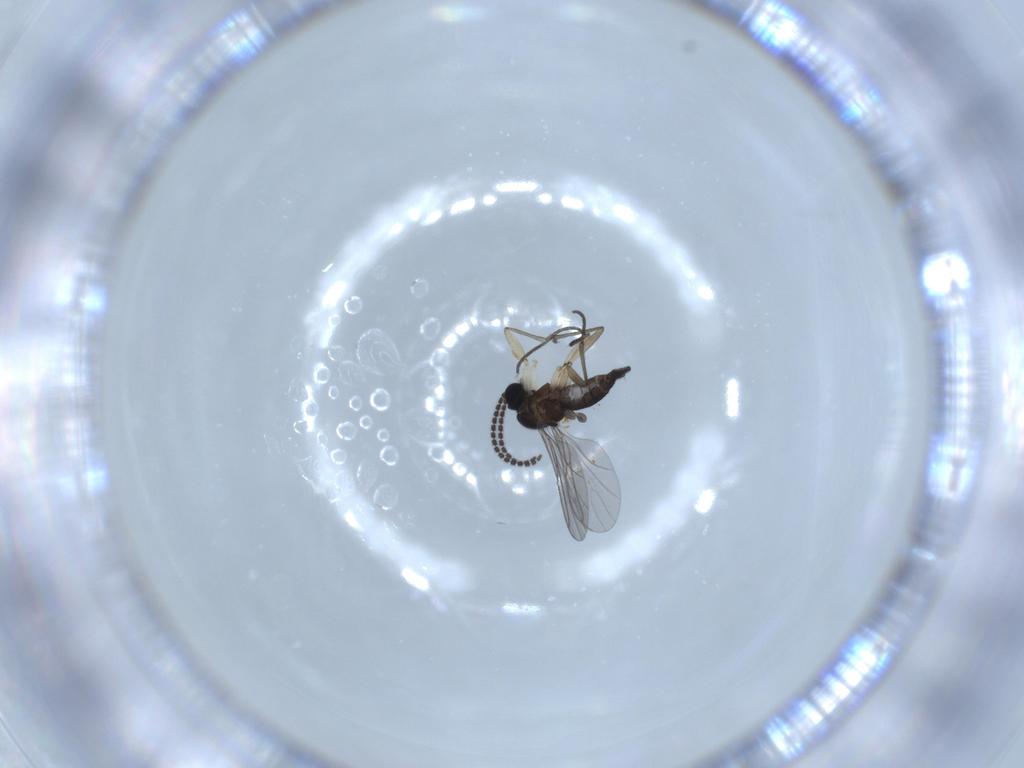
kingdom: Animalia
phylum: Arthropoda
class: Insecta
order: Diptera
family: Sciaridae
